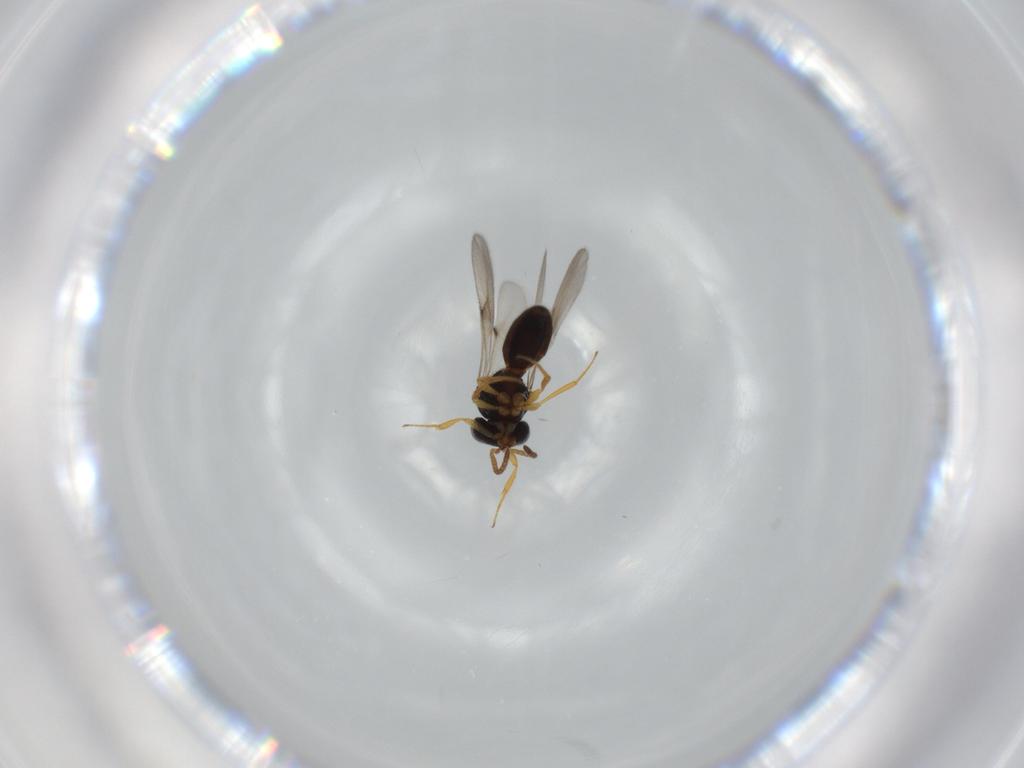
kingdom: Animalia
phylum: Arthropoda
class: Insecta
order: Hymenoptera
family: Scelionidae
